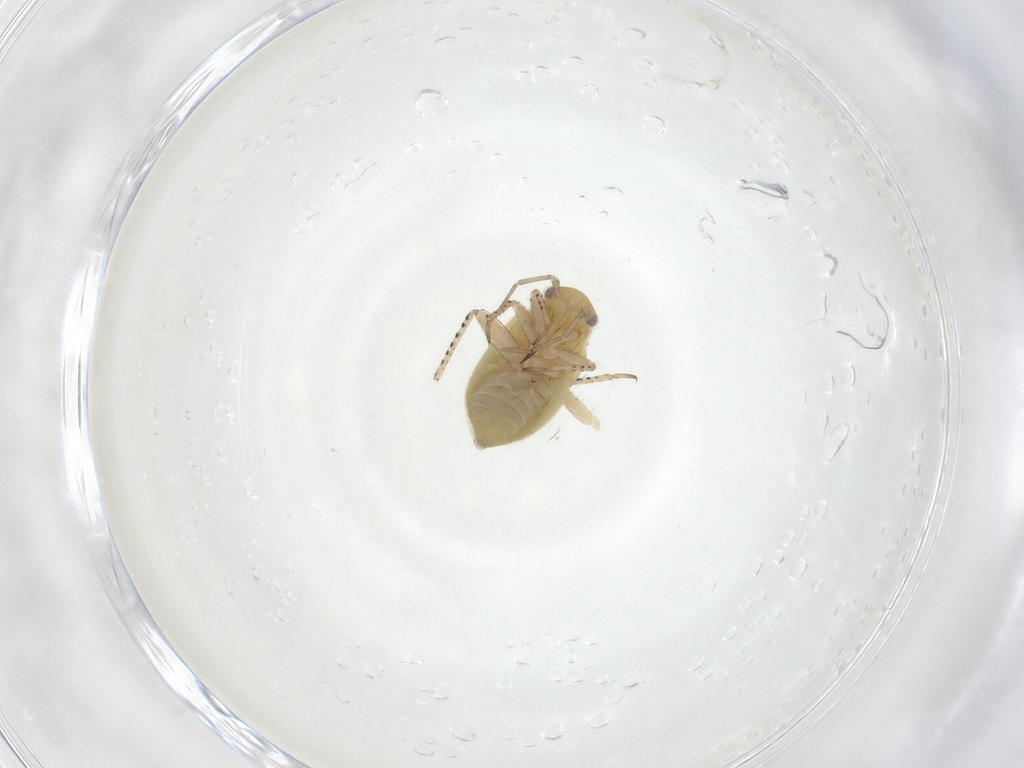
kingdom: Animalia
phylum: Arthropoda
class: Insecta
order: Hemiptera
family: Miridae
